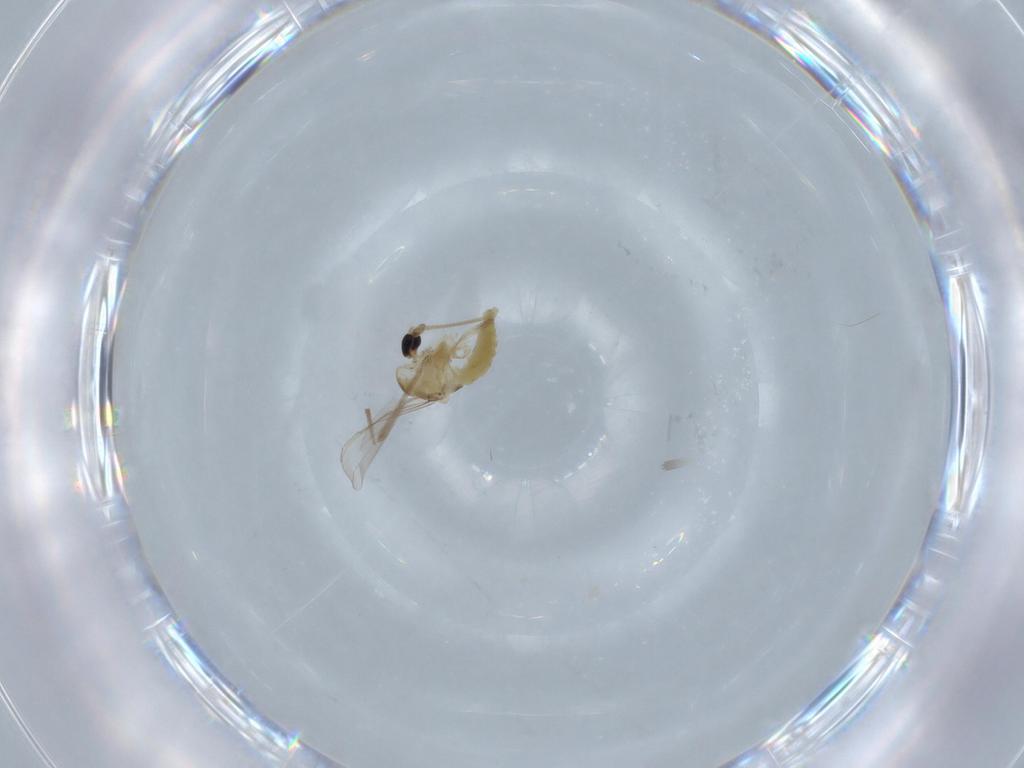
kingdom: Animalia
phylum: Arthropoda
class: Insecta
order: Diptera
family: Chironomidae
